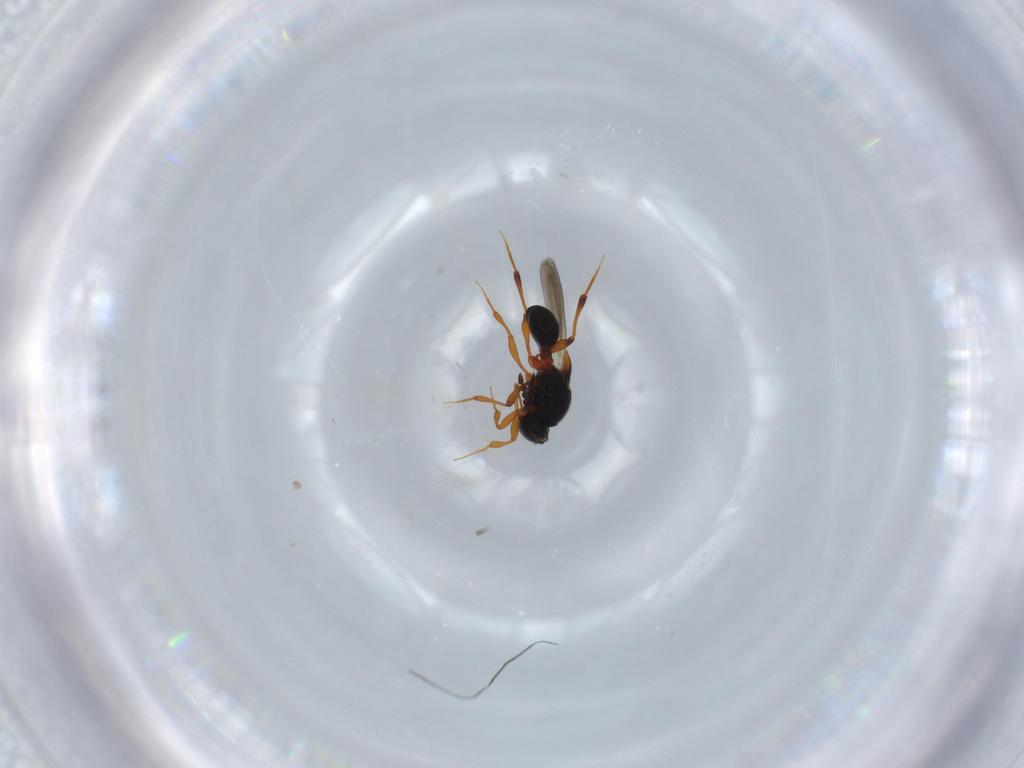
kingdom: Animalia
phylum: Arthropoda
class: Insecta
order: Hymenoptera
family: Platygastridae
